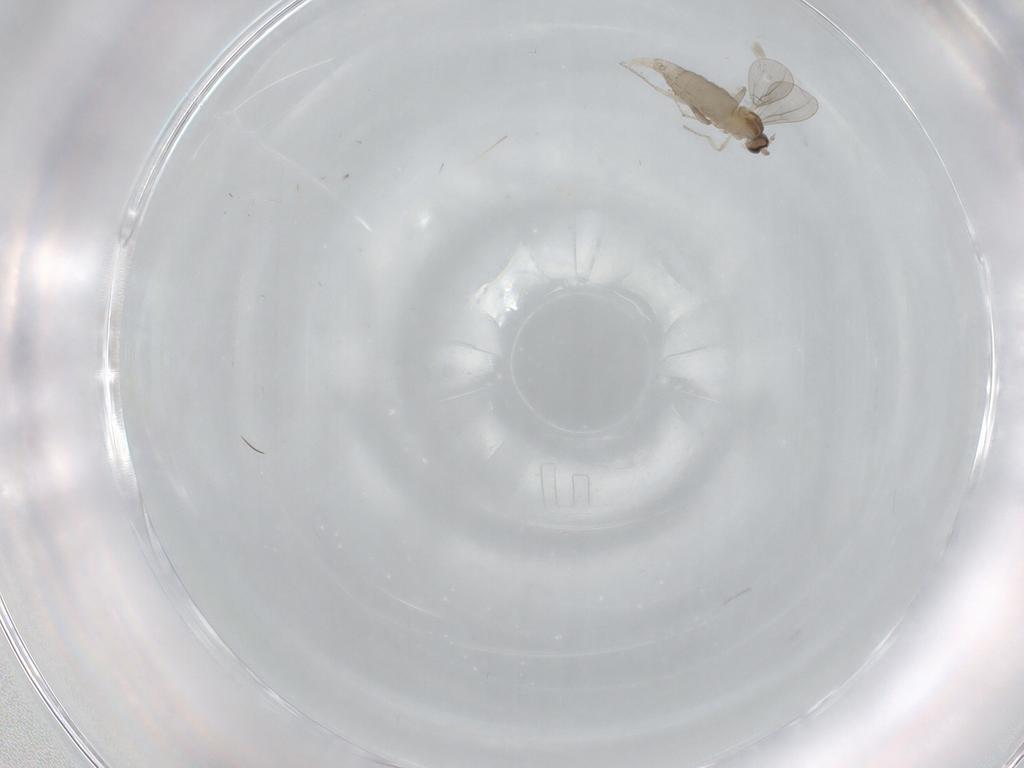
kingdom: Animalia
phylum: Arthropoda
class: Insecta
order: Diptera
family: Cecidomyiidae
